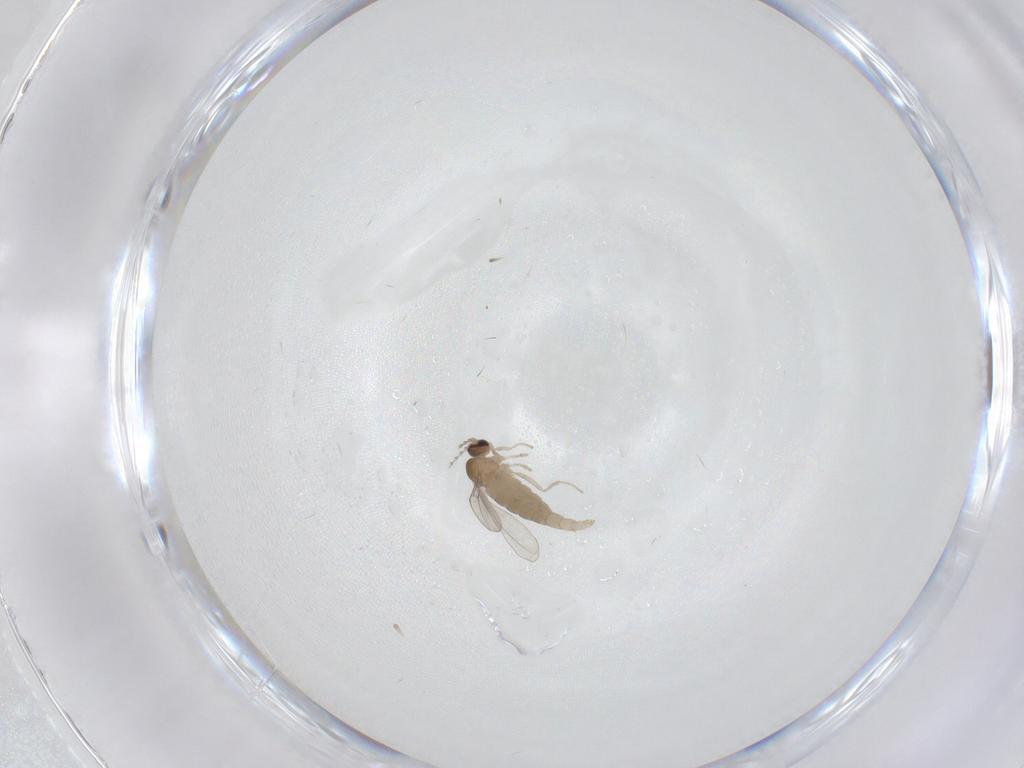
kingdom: Animalia
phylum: Arthropoda
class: Insecta
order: Diptera
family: Cecidomyiidae
